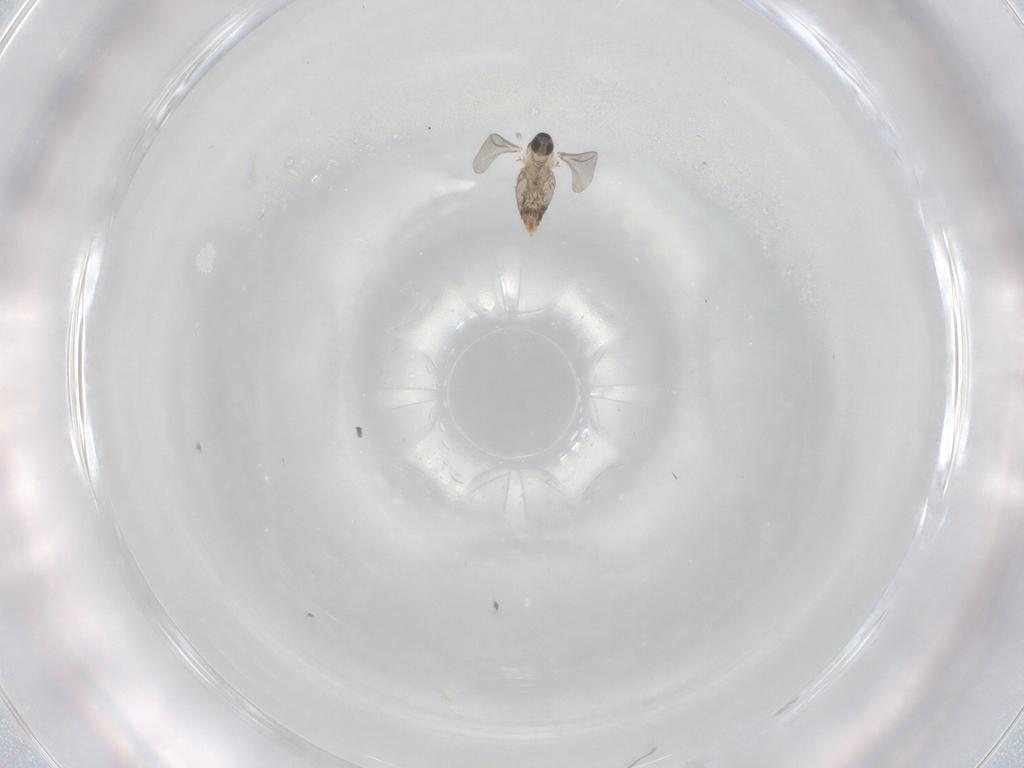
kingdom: Animalia
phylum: Arthropoda
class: Insecta
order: Diptera
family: Cecidomyiidae
